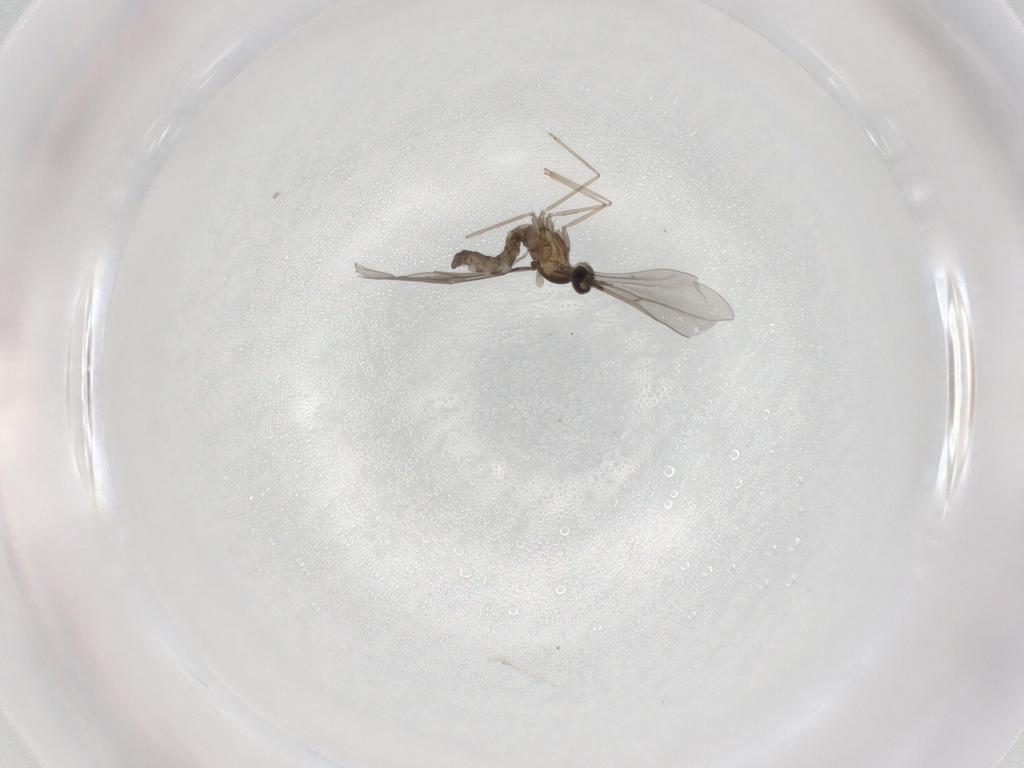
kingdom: Animalia
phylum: Arthropoda
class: Insecta
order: Diptera
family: Cecidomyiidae
